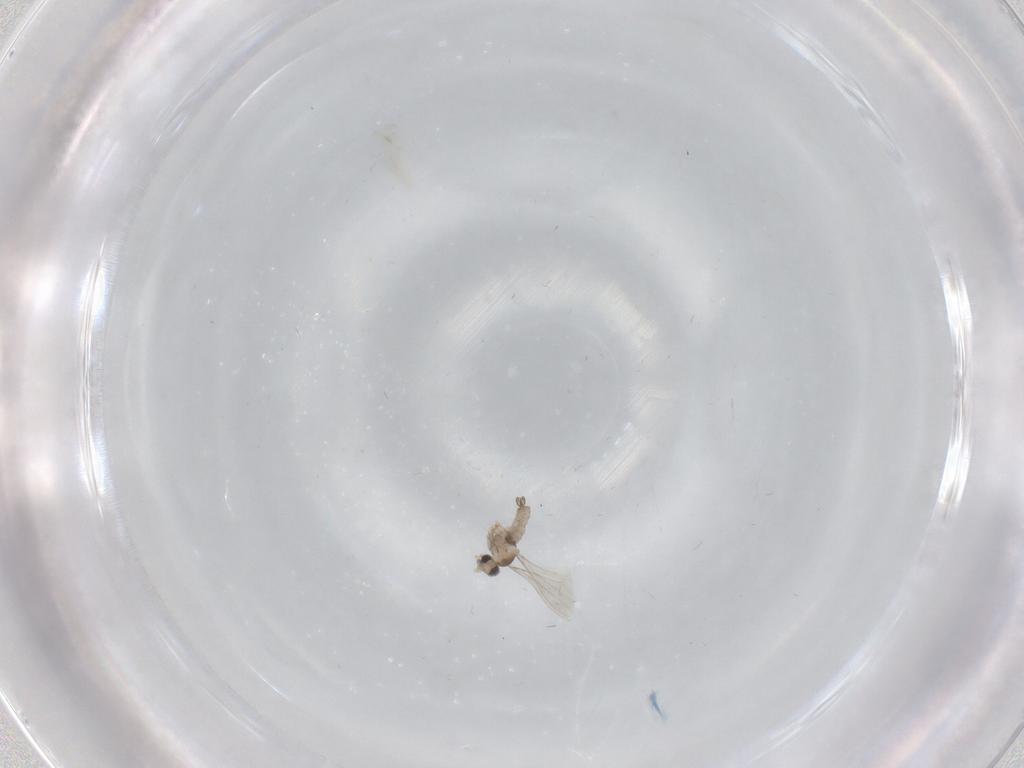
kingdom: Animalia
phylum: Arthropoda
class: Insecta
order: Diptera
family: Cecidomyiidae
